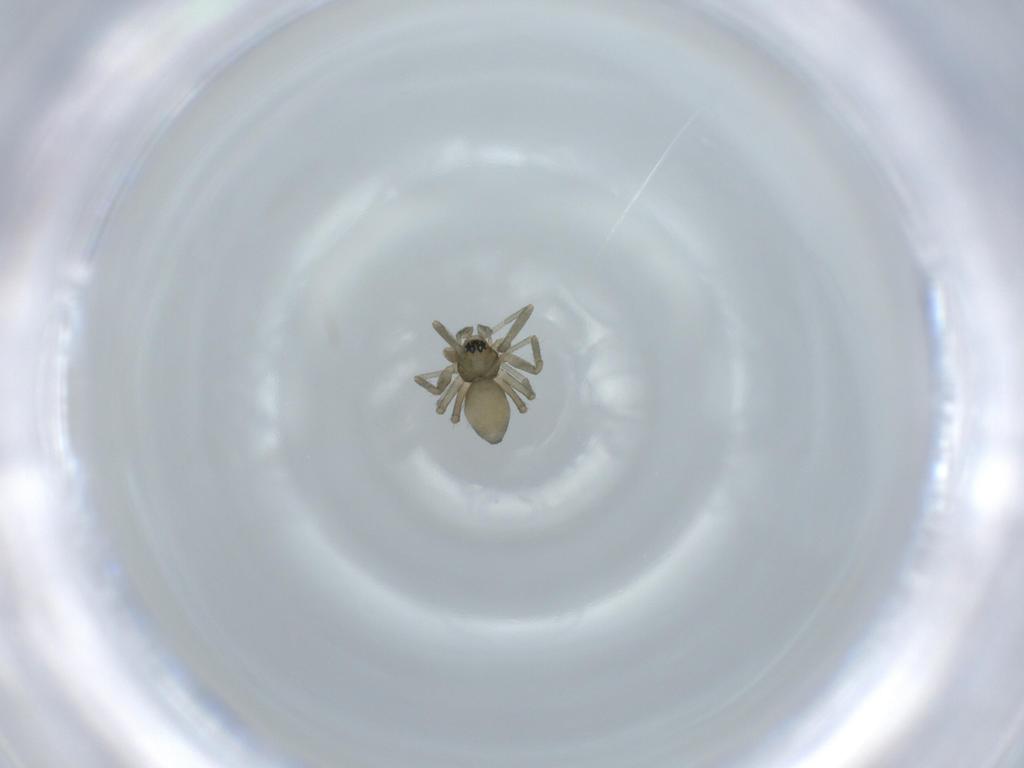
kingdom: Animalia
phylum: Arthropoda
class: Arachnida
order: Araneae
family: Linyphiidae
